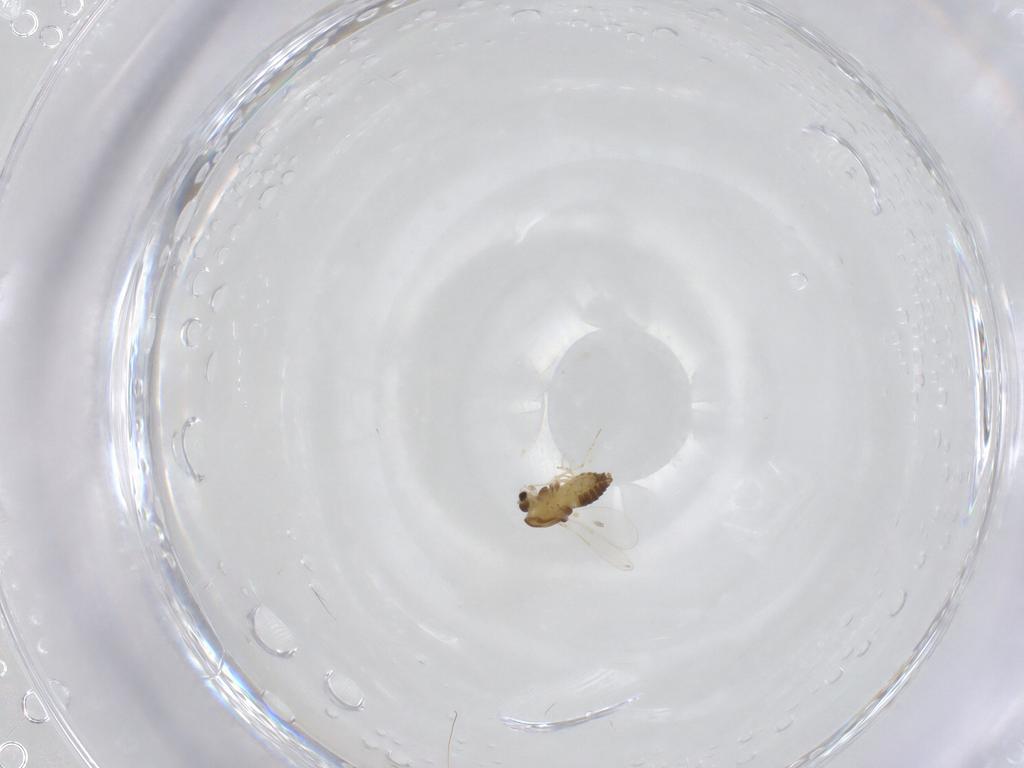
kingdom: Animalia
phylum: Arthropoda
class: Insecta
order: Diptera
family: Chironomidae
